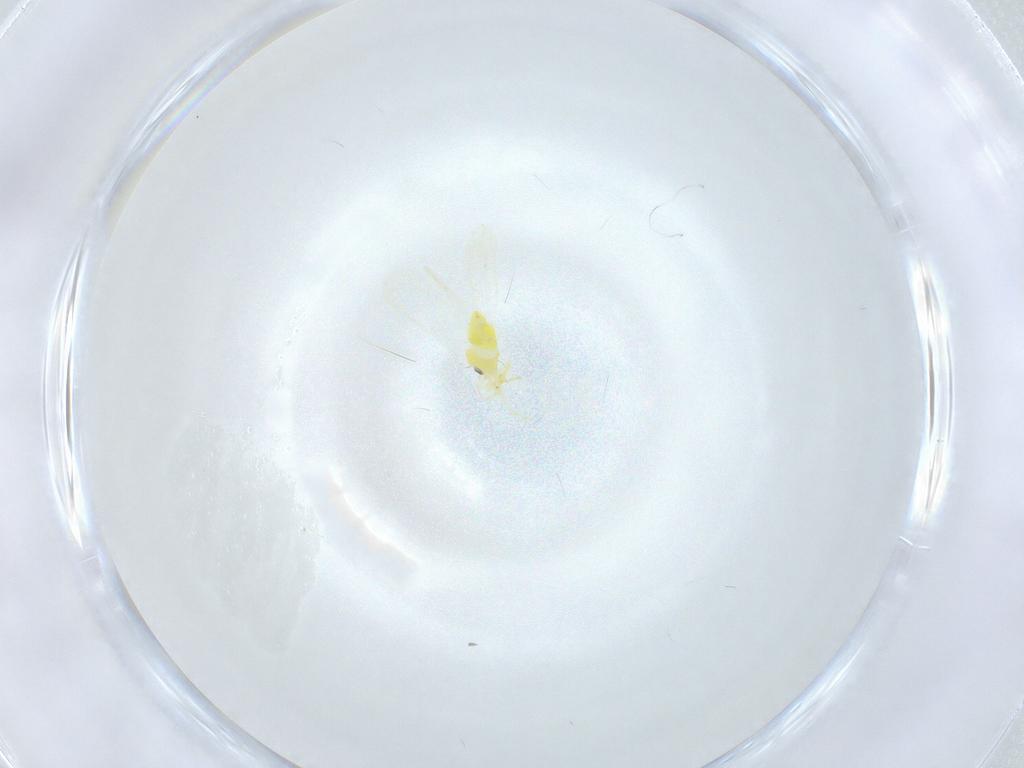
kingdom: Animalia
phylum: Arthropoda
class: Insecta
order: Hemiptera
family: Aleyrodidae
